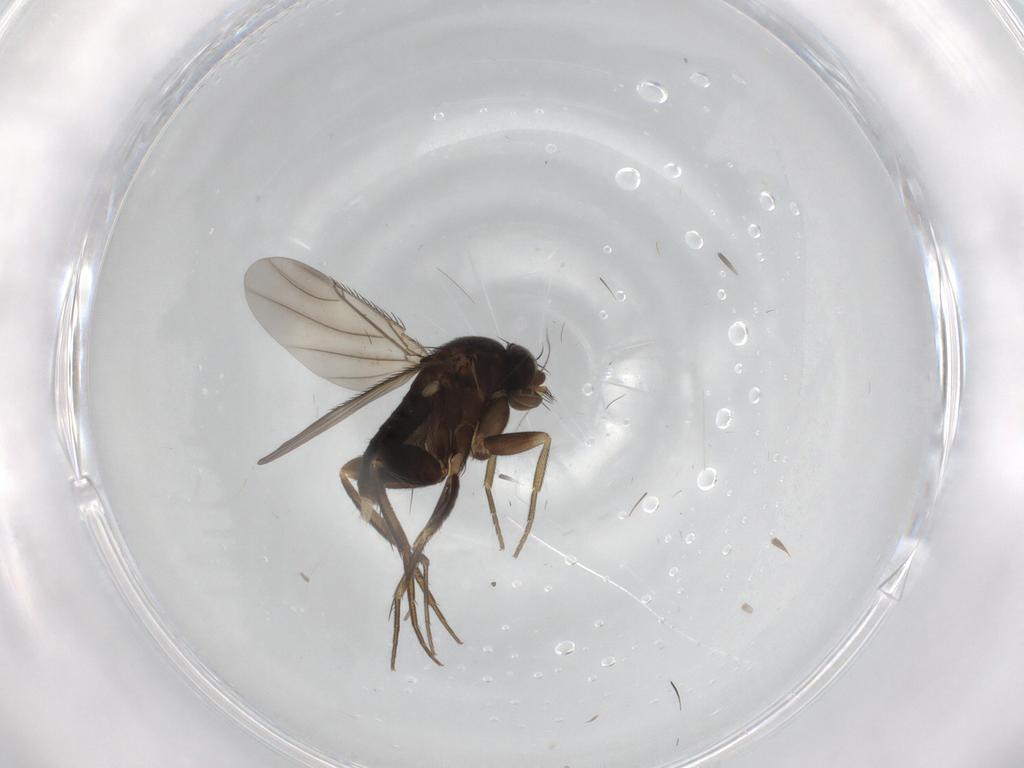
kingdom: Animalia
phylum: Arthropoda
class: Insecta
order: Diptera
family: Phoridae
